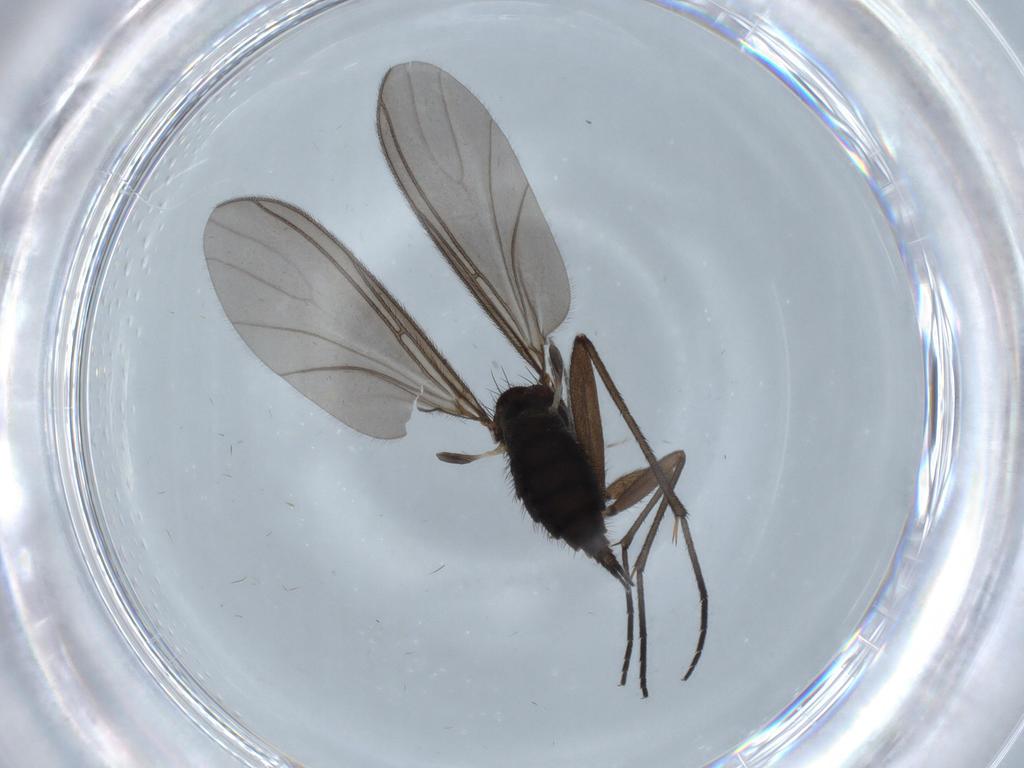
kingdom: Animalia
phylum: Arthropoda
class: Insecta
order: Diptera
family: Sciaridae
